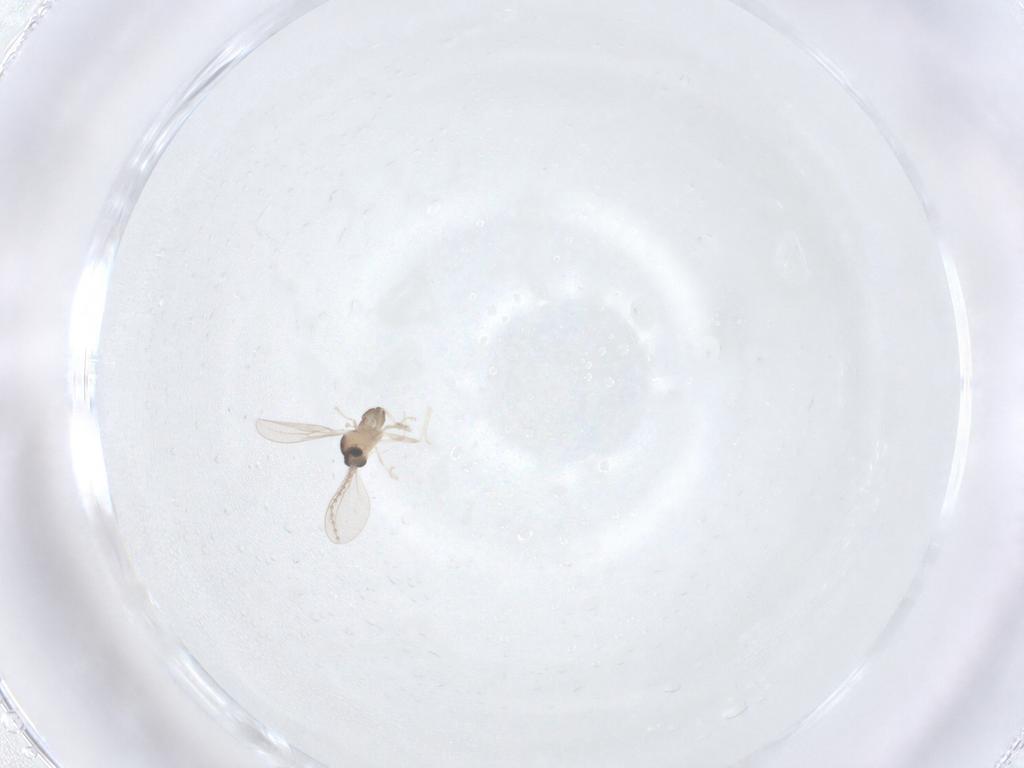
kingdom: Animalia
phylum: Arthropoda
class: Insecta
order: Diptera
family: Cecidomyiidae
